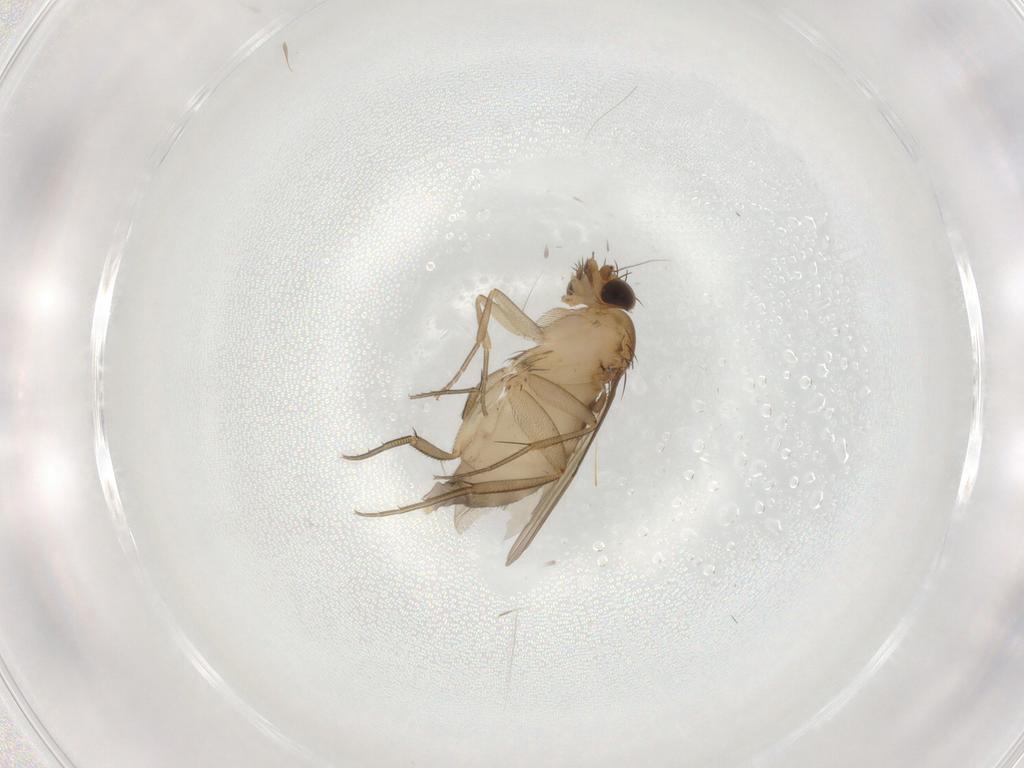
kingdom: Animalia
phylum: Arthropoda
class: Insecta
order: Diptera
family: Phoridae
